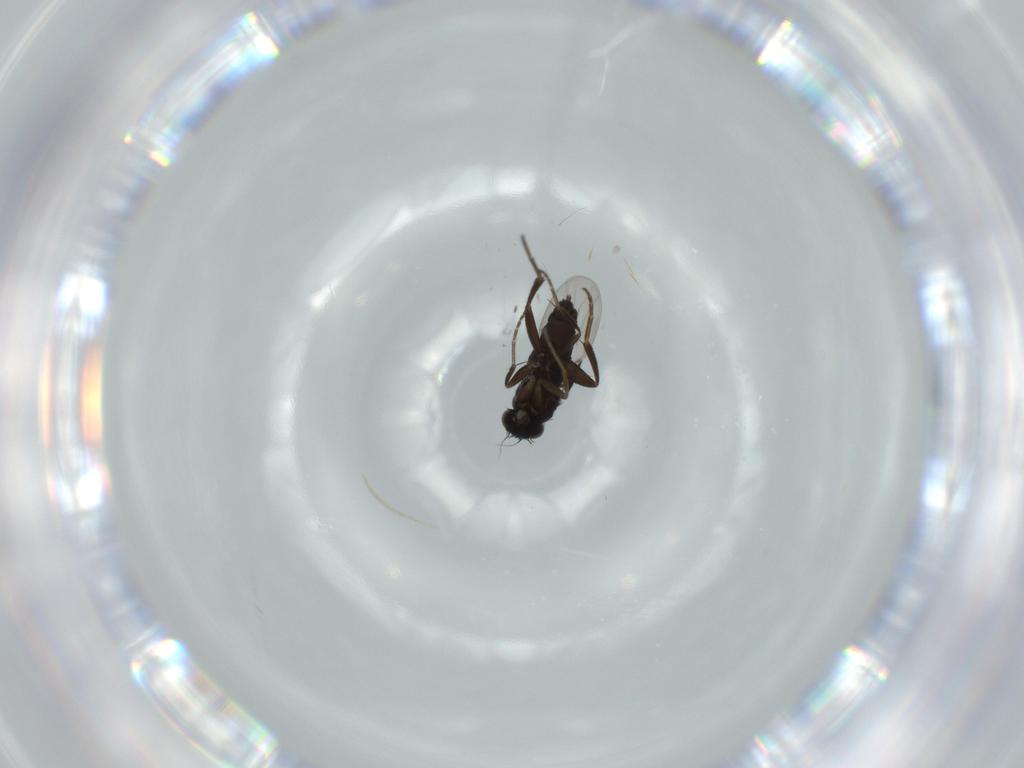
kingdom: Animalia
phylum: Arthropoda
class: Insecta
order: Diptera
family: Phoridae
